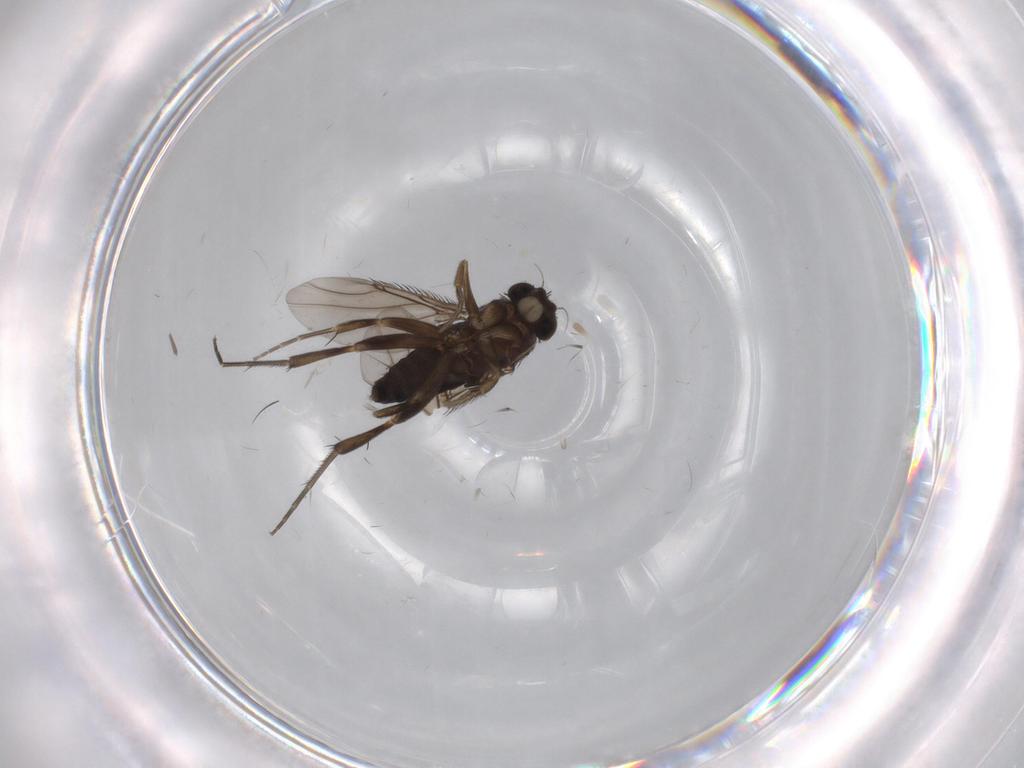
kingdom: Animalia
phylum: Arthropoda
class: Insecta
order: Diptera
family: Phoridae
